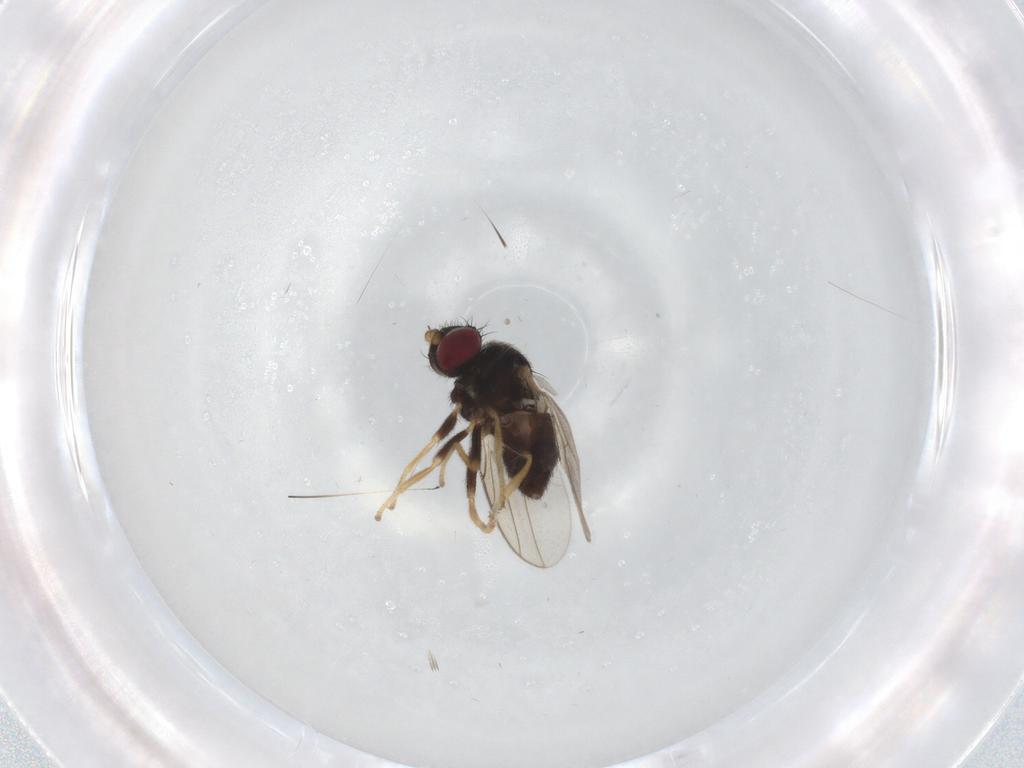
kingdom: Animalia
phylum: Arthropoda
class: Insecta
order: Diptera
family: Chloropidae
